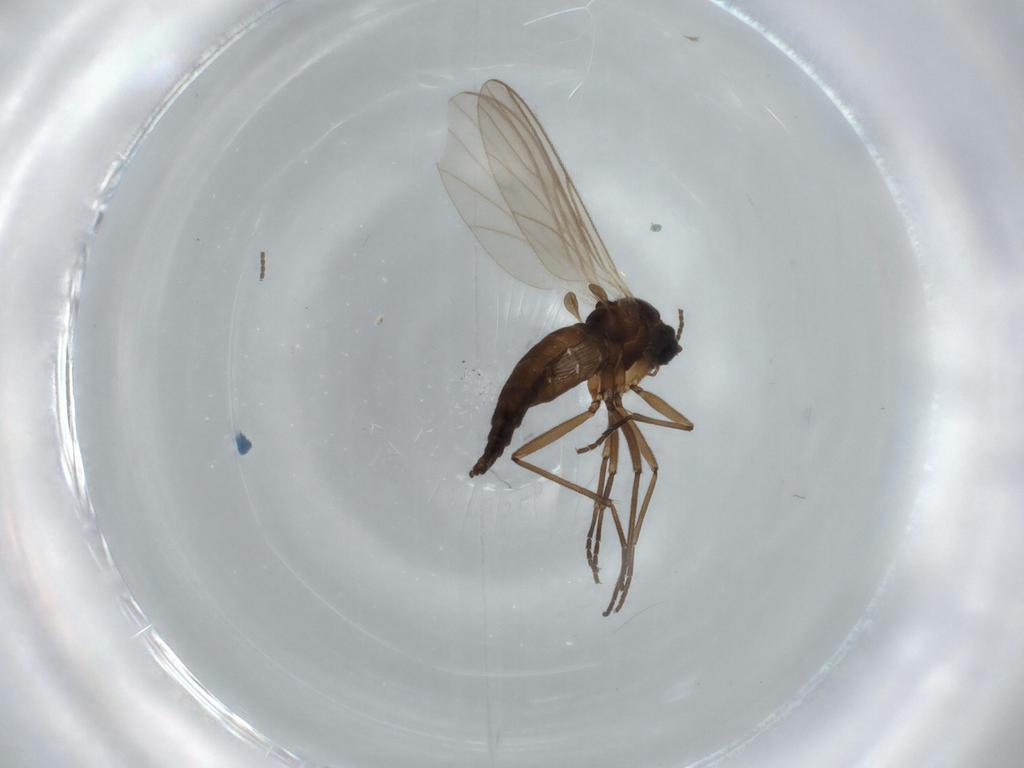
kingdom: Animalia
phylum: Arthropoda
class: Insecta
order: Diptera
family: Sciaridae
